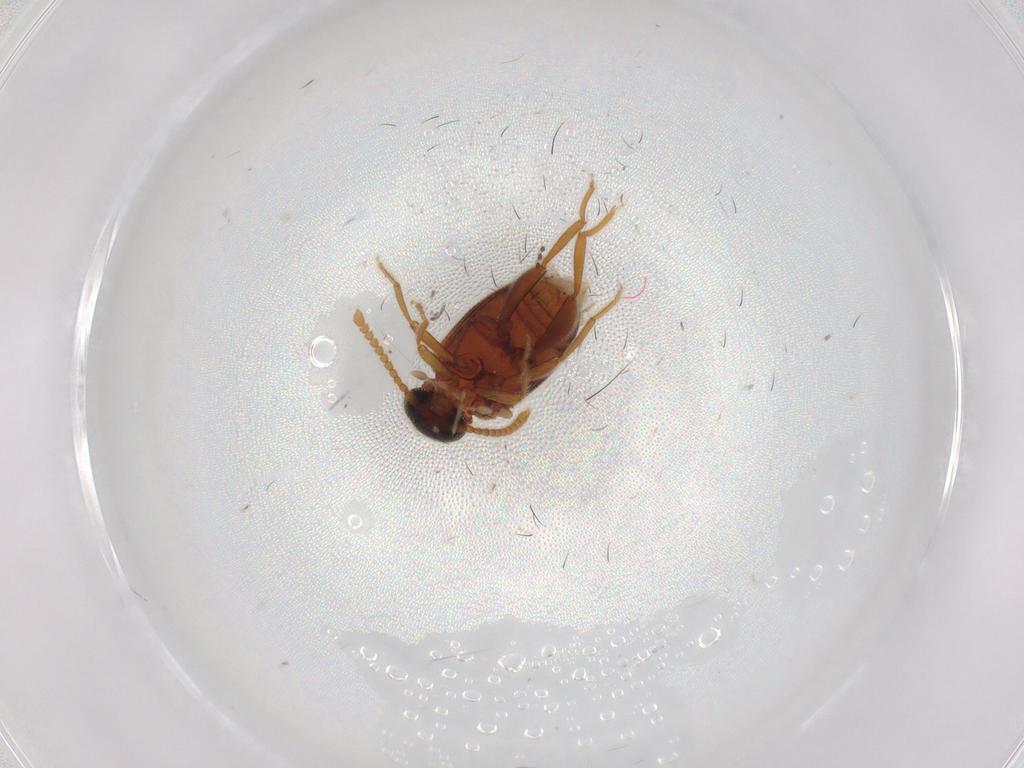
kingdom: Animalia
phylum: Arthropoda
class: Insecta
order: Coleoptera
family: Aderidae
